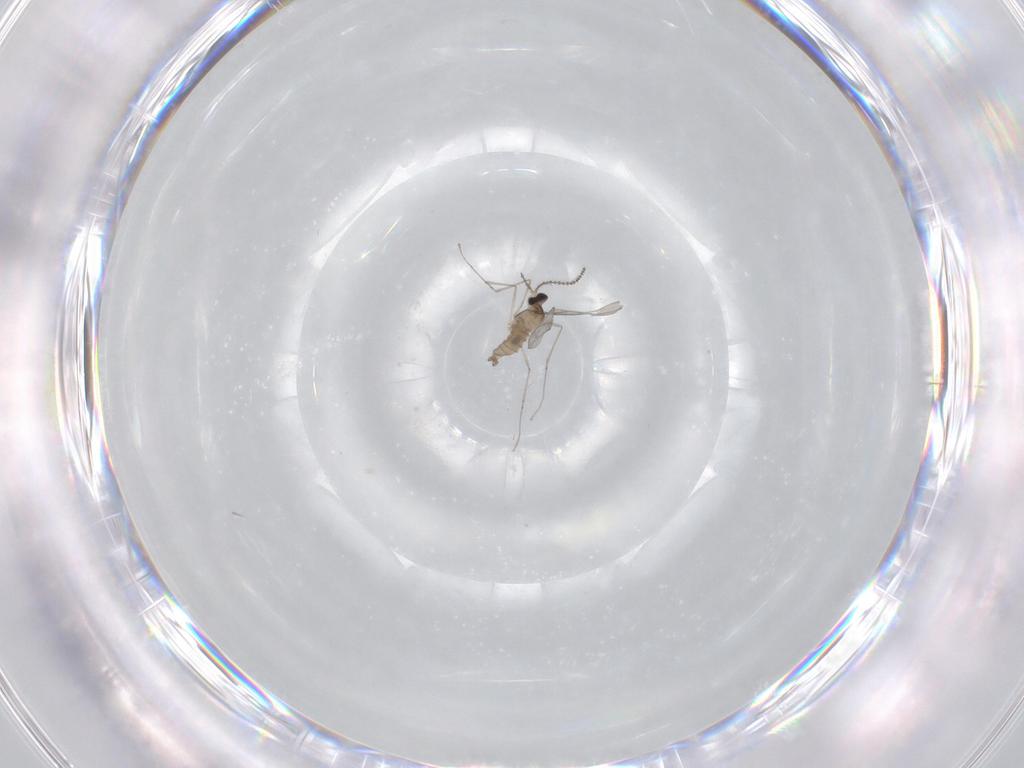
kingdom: Animalia
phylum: Arthropoda
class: Insecta
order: Diptera
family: Cecidomyiidae
